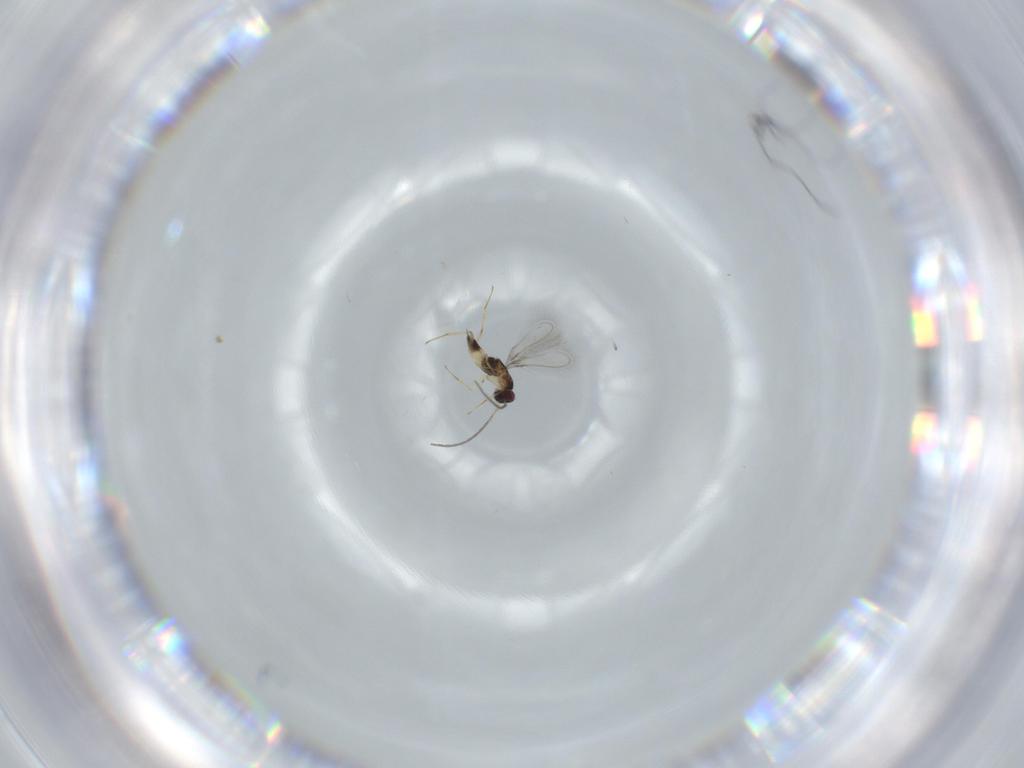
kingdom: Animalia
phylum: Arthropoda
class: Insecta
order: Hymenoptera
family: Mymaridae
